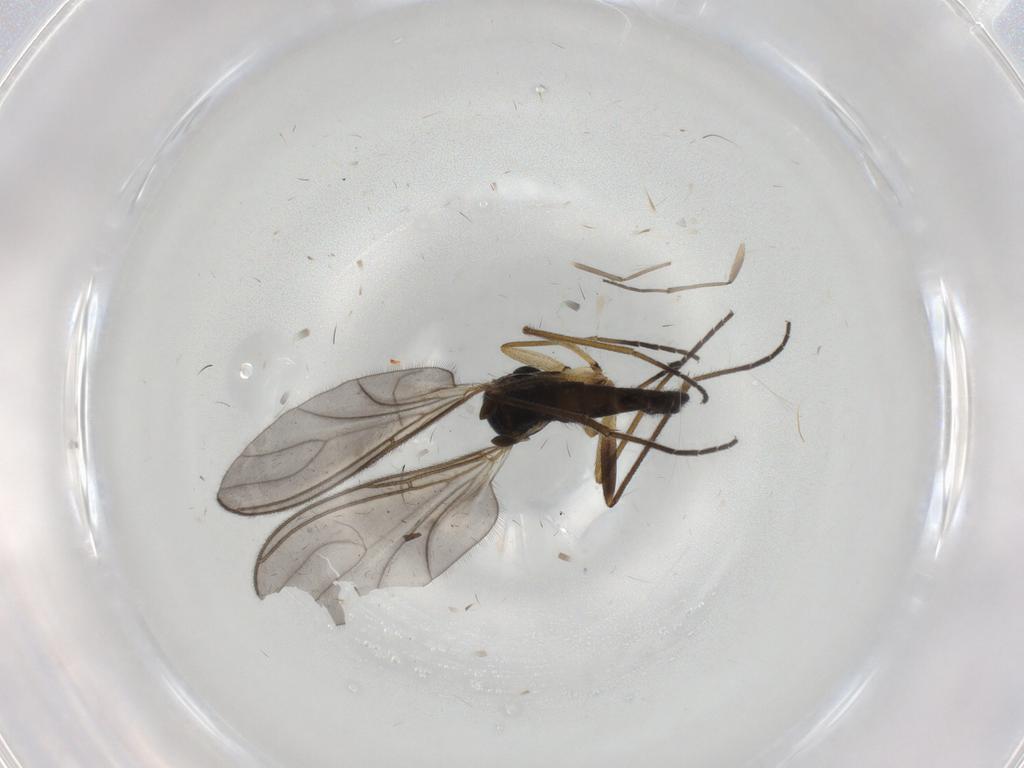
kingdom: Animalia
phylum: Arthropoda
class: Insecta
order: Diptera
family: Sciaridae
